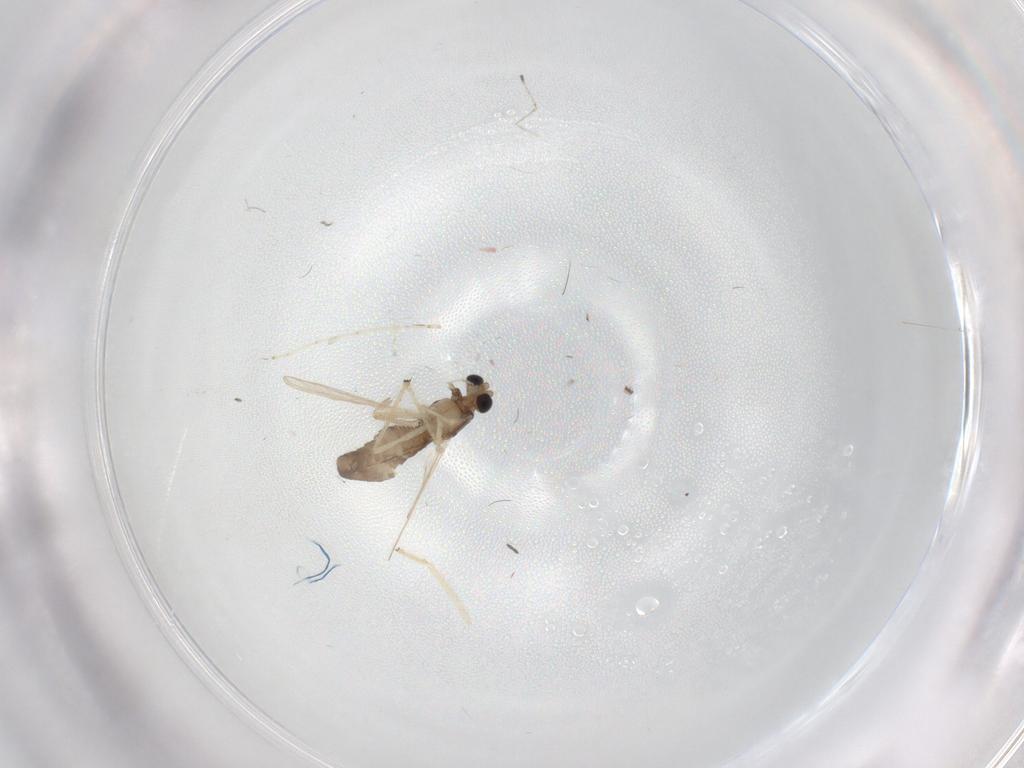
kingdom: Animalia
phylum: Arthropoda
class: Insecta
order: Diptera
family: Chironomidae
